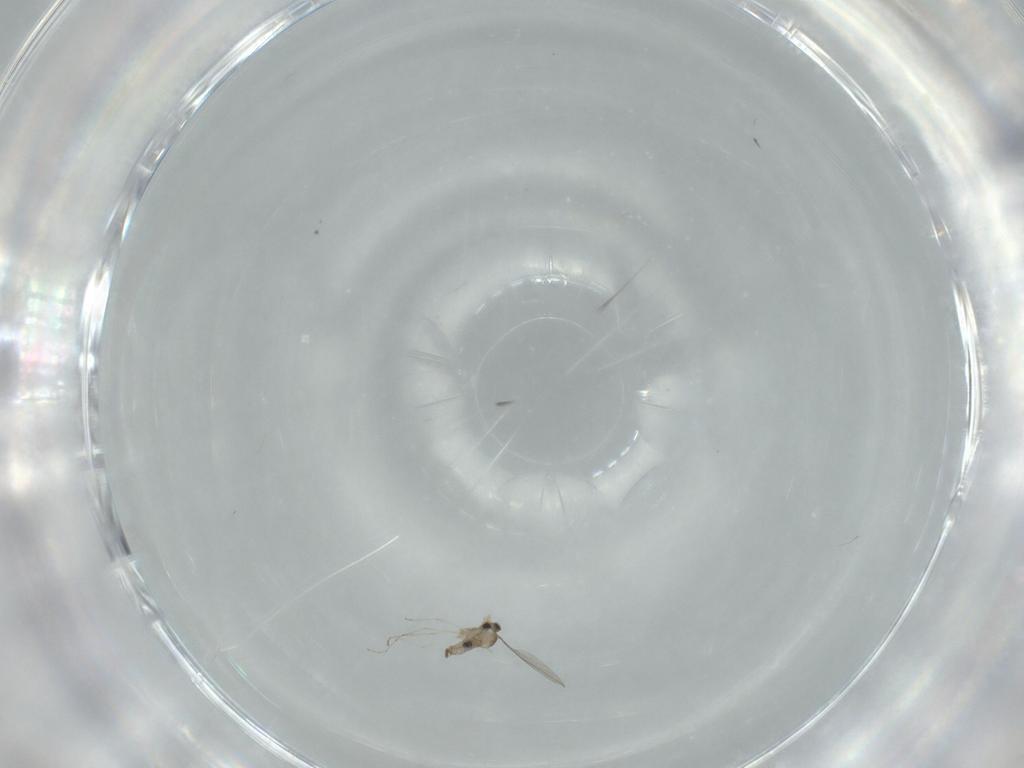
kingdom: Animalia
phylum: Arthropoda
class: Insecta
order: Diptera
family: Cecidomyiidae
